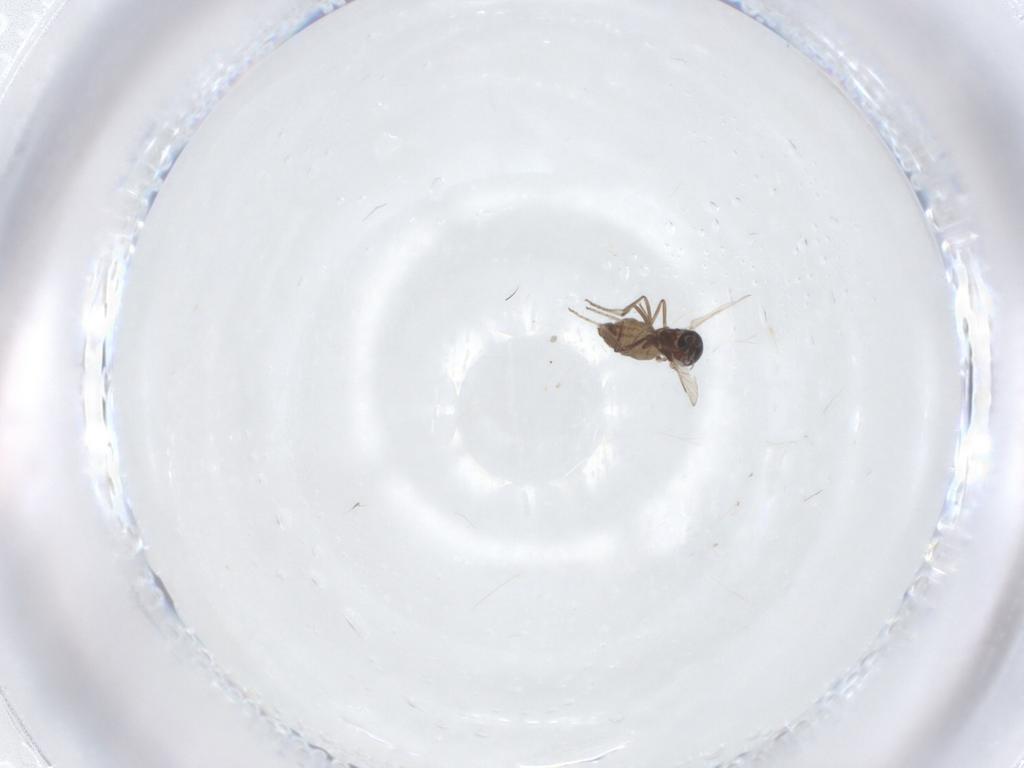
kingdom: Animalia
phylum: Arthropoda
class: Insecta
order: Diptera
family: Ceratopogonidae
